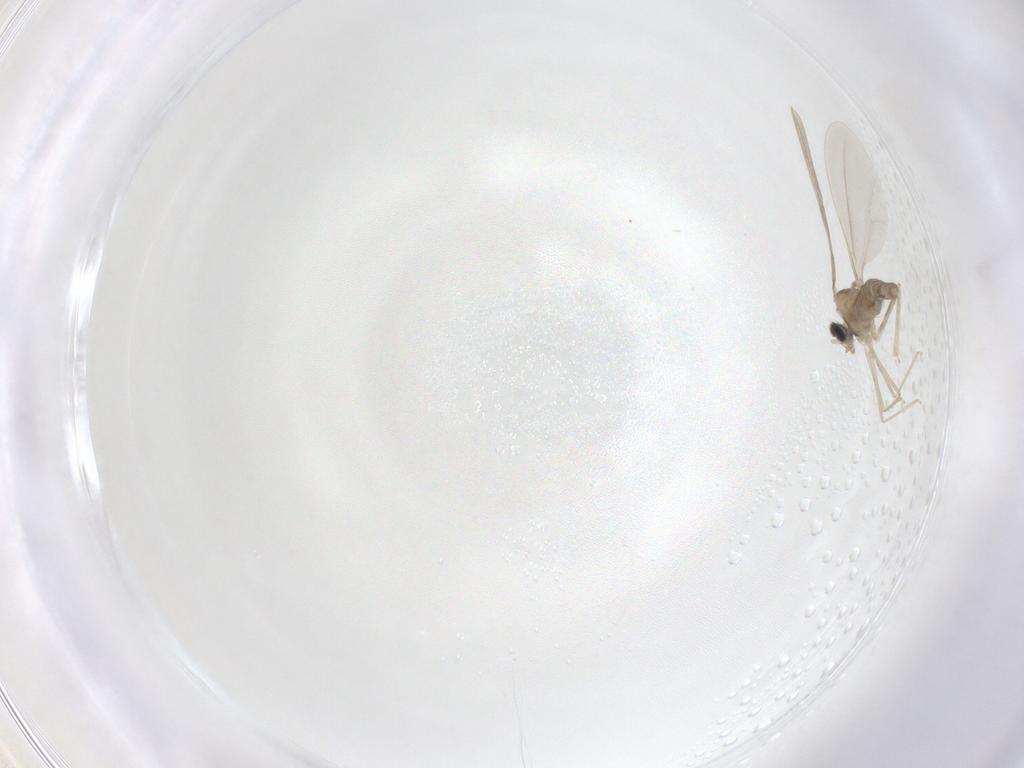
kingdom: Animalia
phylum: Arthropoda
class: Insecta
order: Diptera
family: Cecidomyiidae
